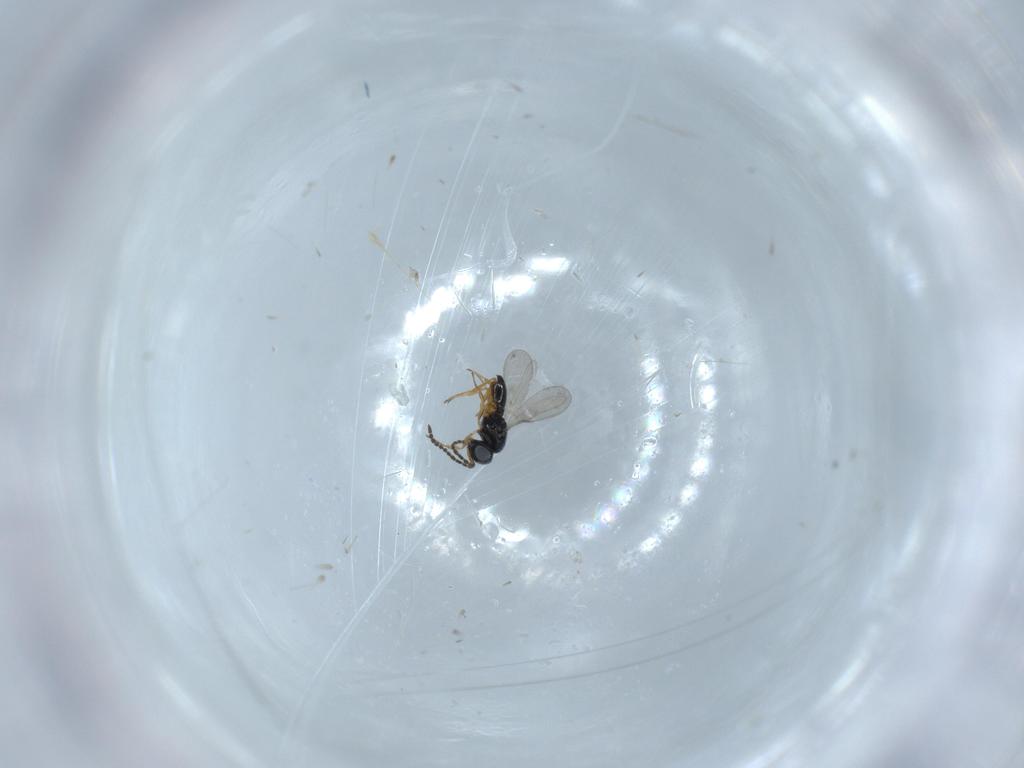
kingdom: Animalia
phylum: Arthropoda
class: Insecta
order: Hymenoptera
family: Scelionidae
